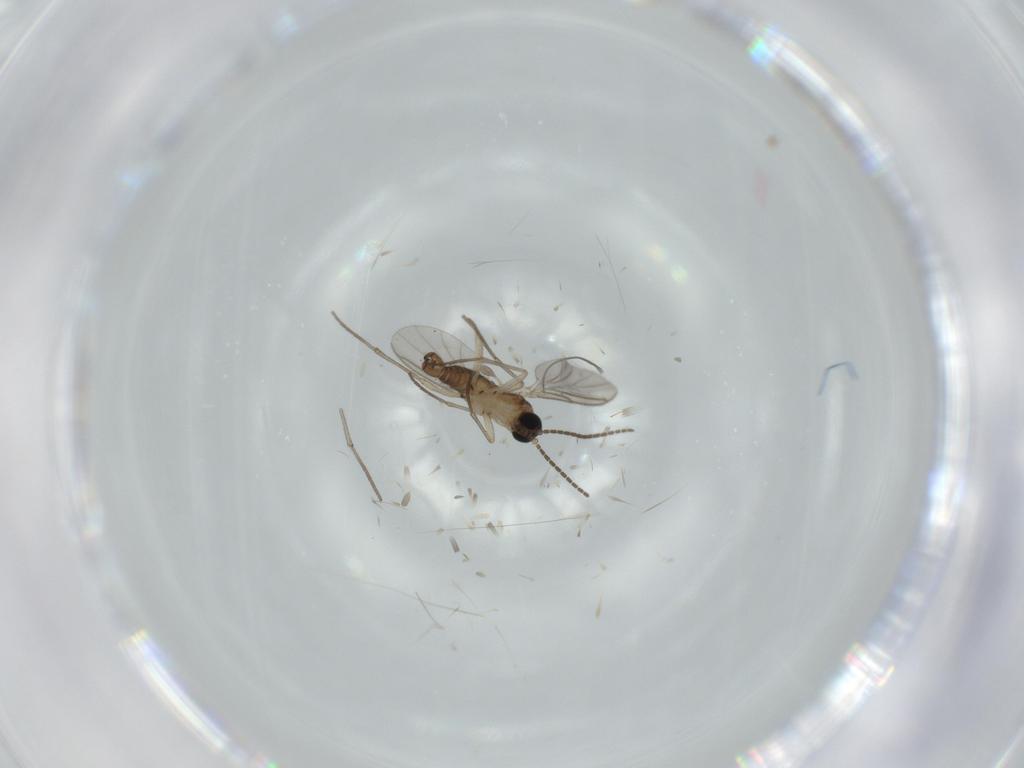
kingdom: Animalia
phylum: Arthropoda
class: Insecta
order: Diptera
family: Sciaridae
